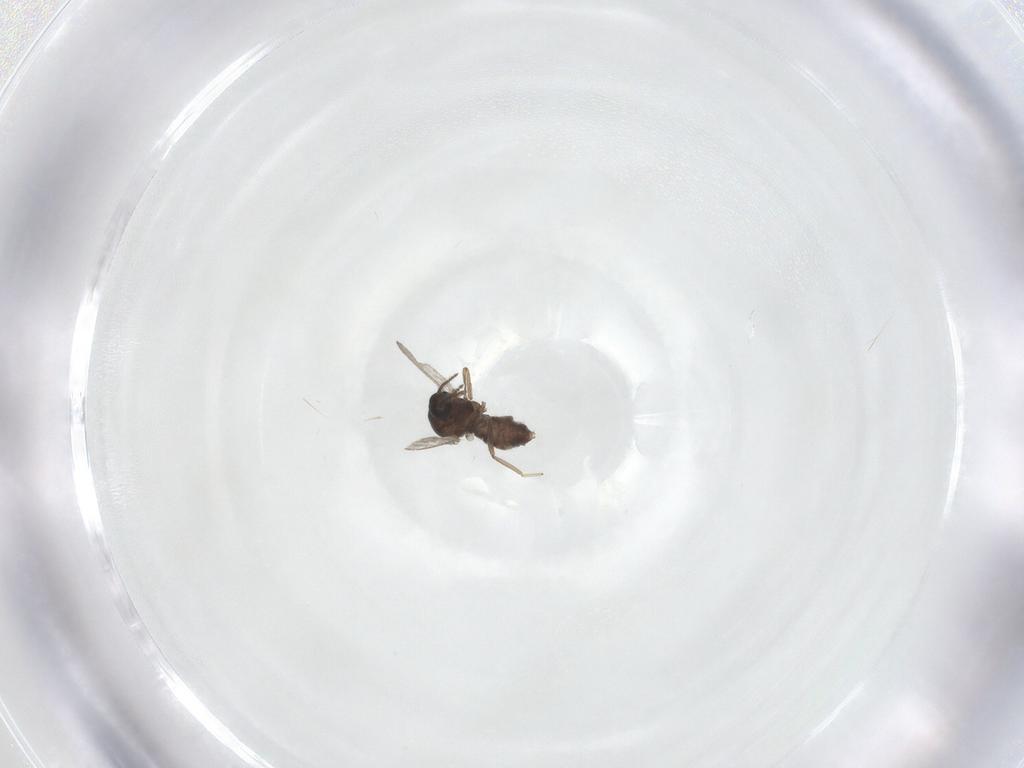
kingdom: Animalia
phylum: Arthropoda
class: Insecta
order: Diptera
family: Ceratopogonidae
